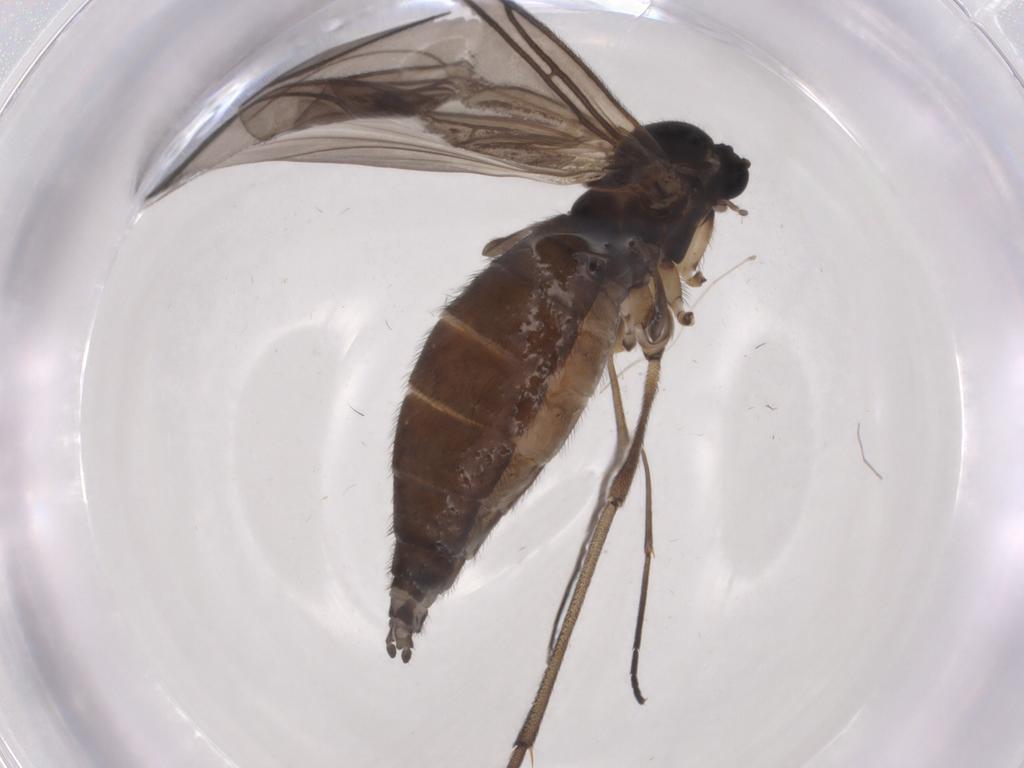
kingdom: Animalia
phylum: Arthropoda
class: Insecta
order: Diptera
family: Sciaridae
